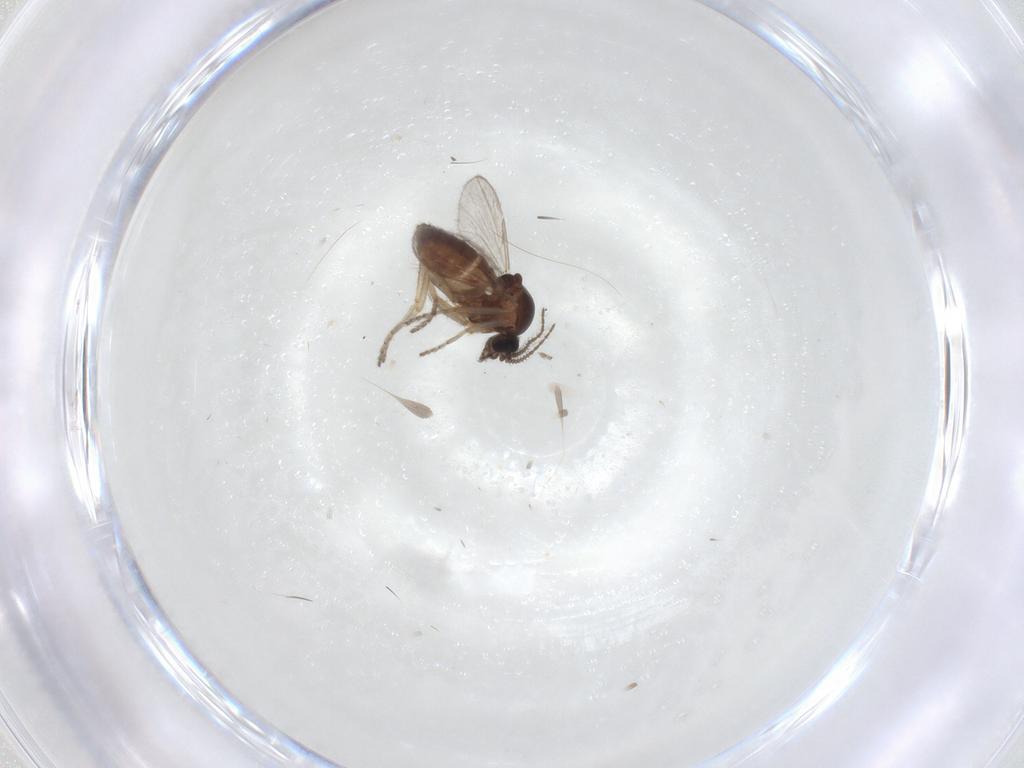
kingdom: Animalia
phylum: Arthropoda
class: Insecta
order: Diptera
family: Ceratopogonidae
